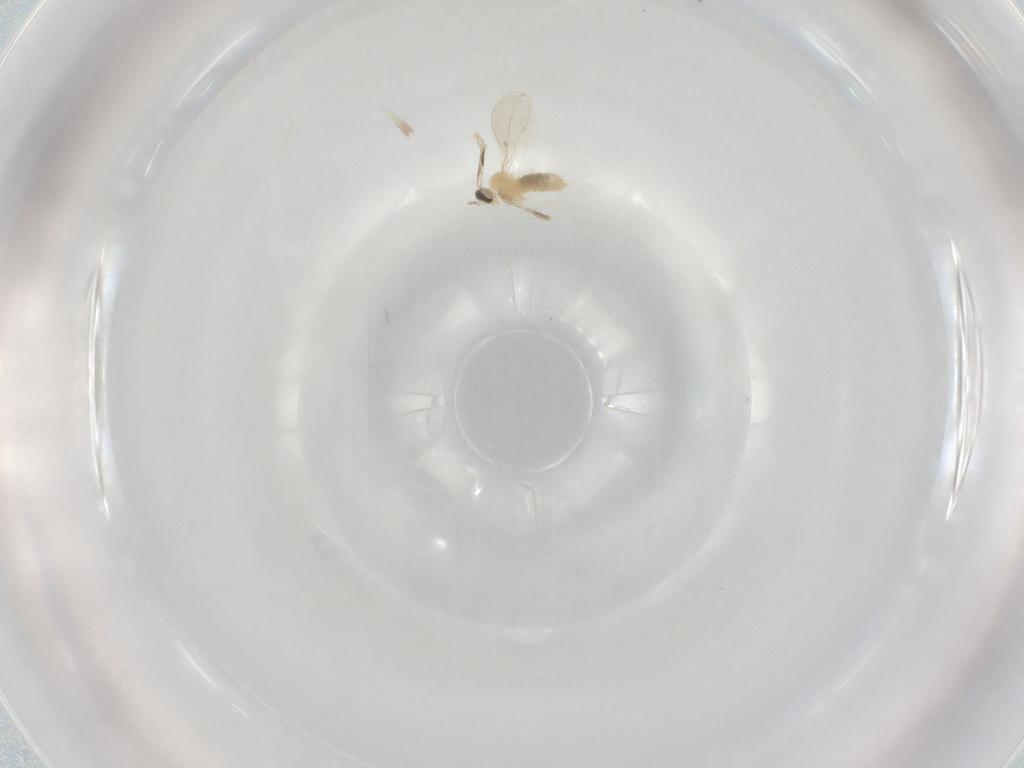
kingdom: Animalia
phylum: Arthropoda
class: Insecta
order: Diptera
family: Cecidomyiidae
